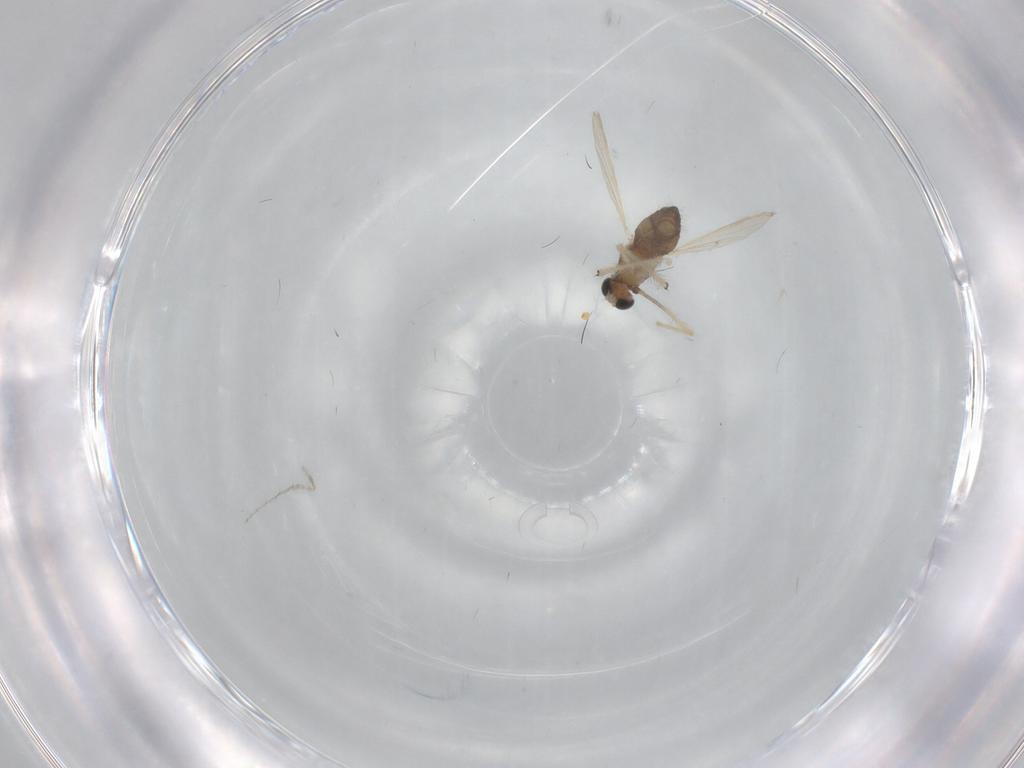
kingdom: Animalia
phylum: Arthropoda
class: Insecta
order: Diptera
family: Chironomidae
